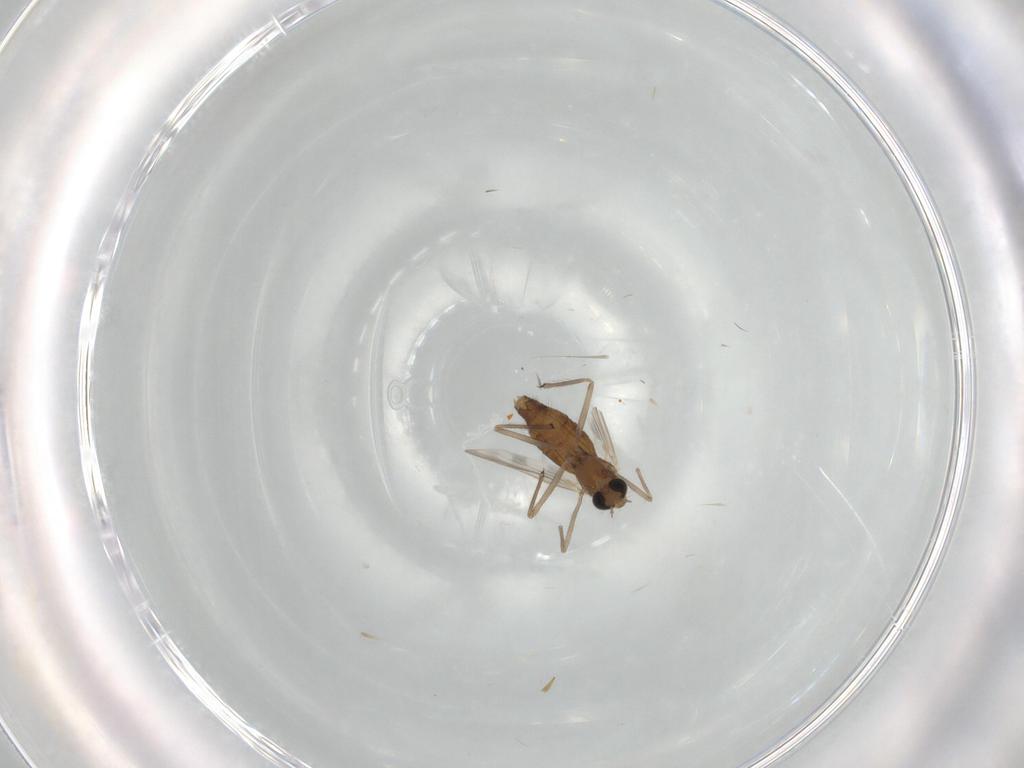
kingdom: Animalia
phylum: Arthropoda
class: Insecta
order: Diptera
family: Chironomidae
